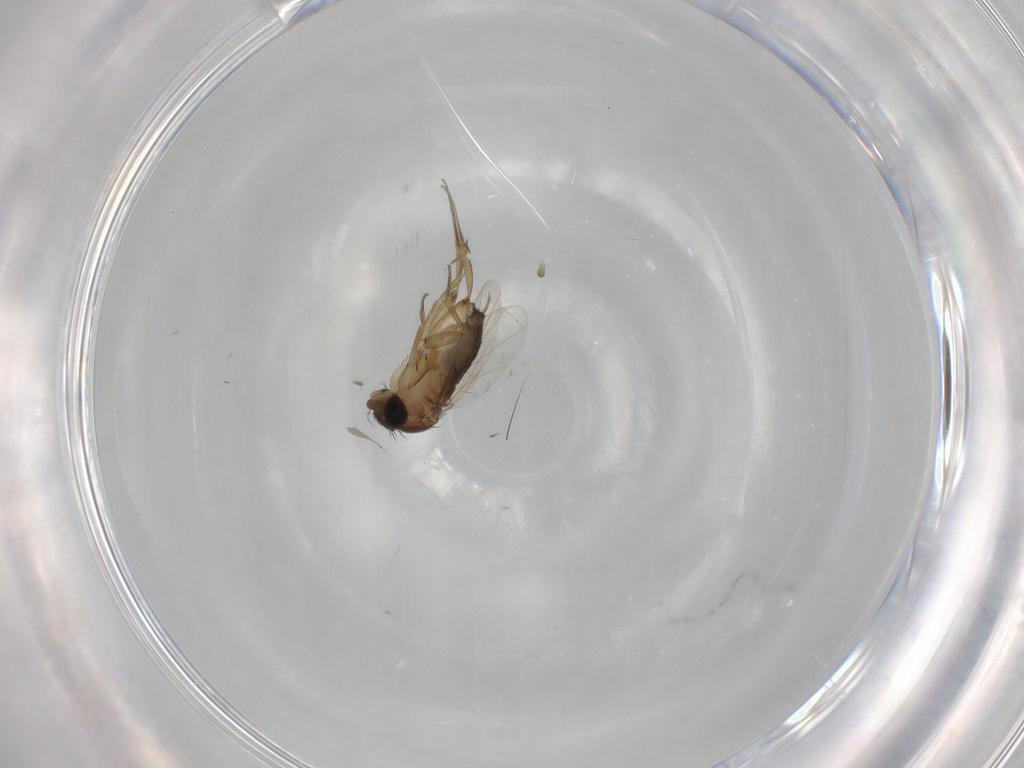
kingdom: Animalia
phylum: Arthropoda
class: Insecta
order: Diptera
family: Phoridae
